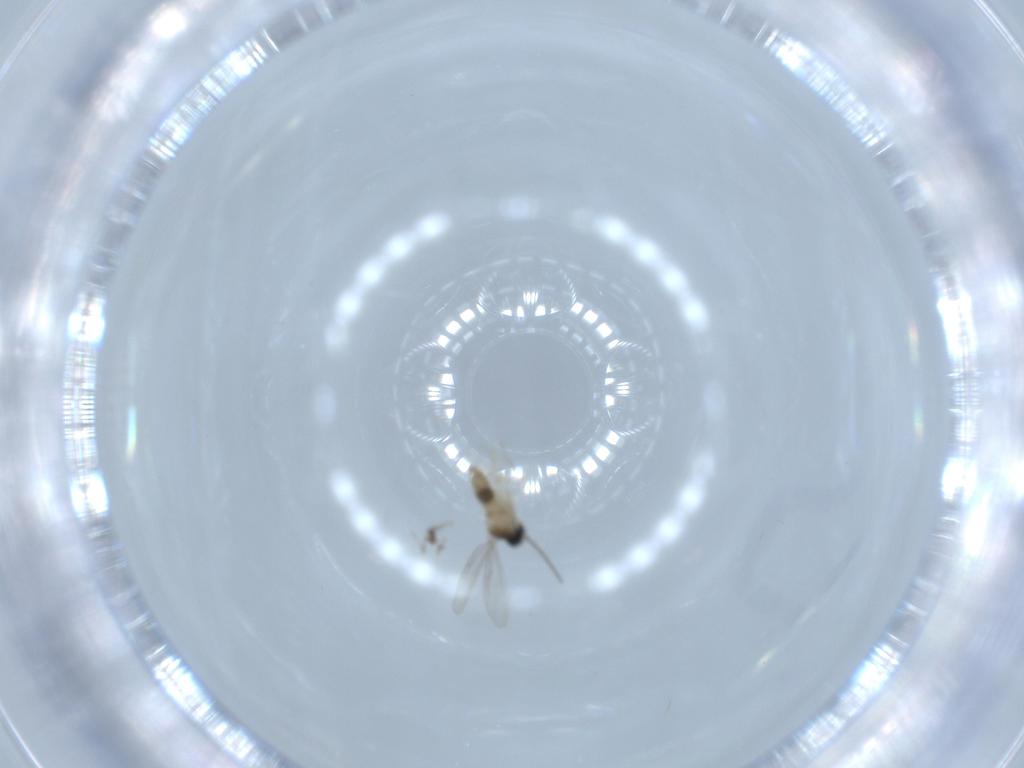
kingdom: Animalia
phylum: Arthropoda
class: Insecta
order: Diptera
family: Cecidomyiidae
